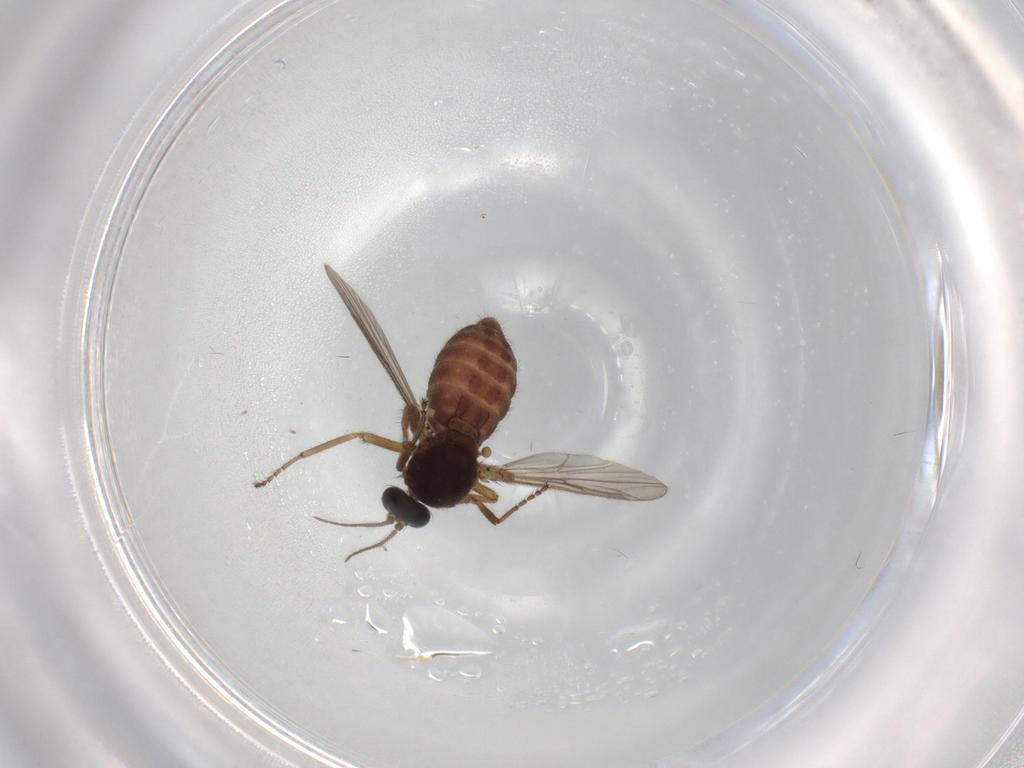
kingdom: Animalia
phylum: Arthropoda
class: Insecta
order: Diptera
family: Ceratopogonidae
